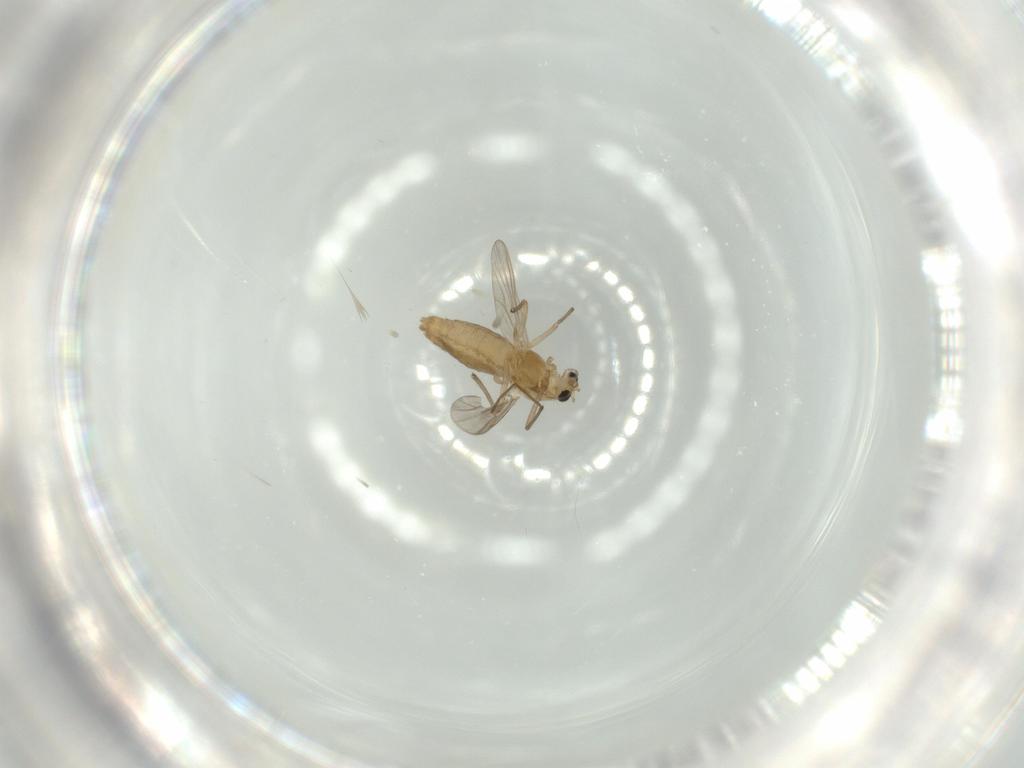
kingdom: Animalia
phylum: Arthropoda
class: Insecta
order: Diptera
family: Chironomidae
